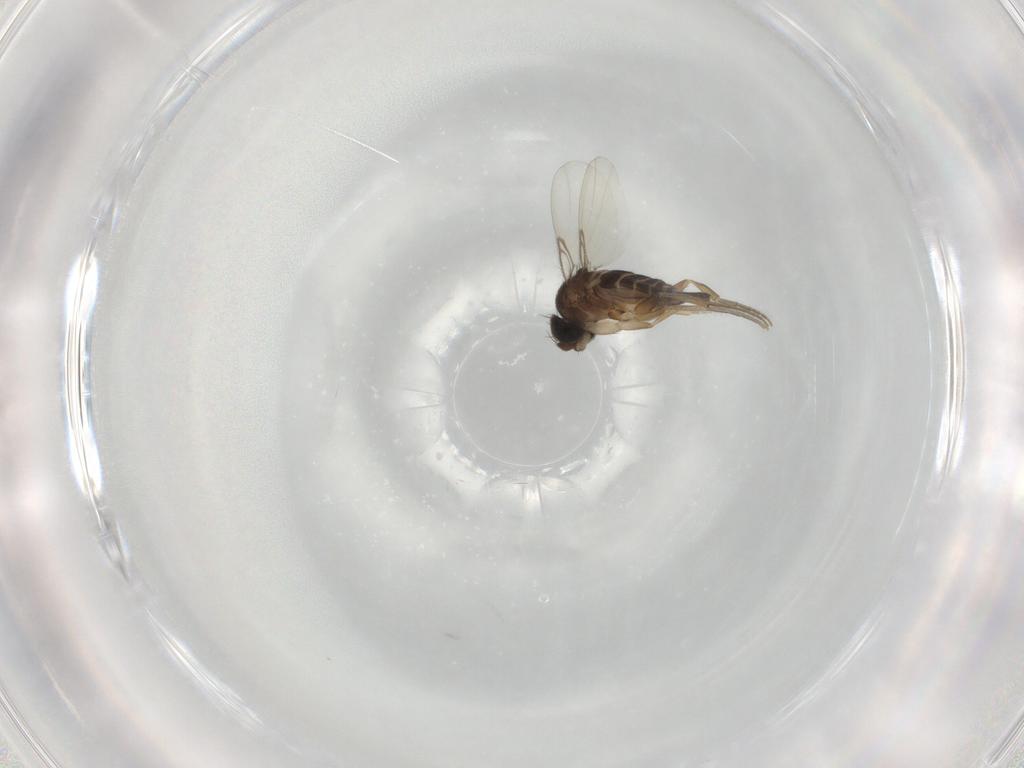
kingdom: Animalia
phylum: Arthropoda
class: Insecta
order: Diptera
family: Phoridae
